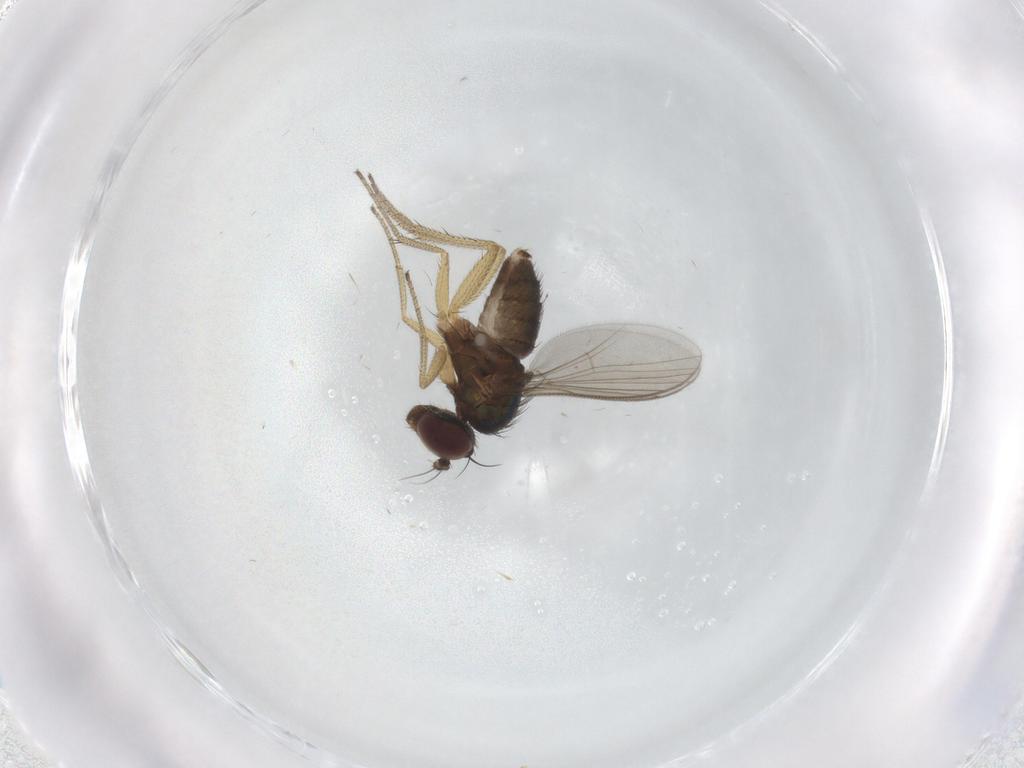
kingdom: Animalia
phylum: Arthropoda
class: Insecta
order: Diptera
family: Dolichopodidae
